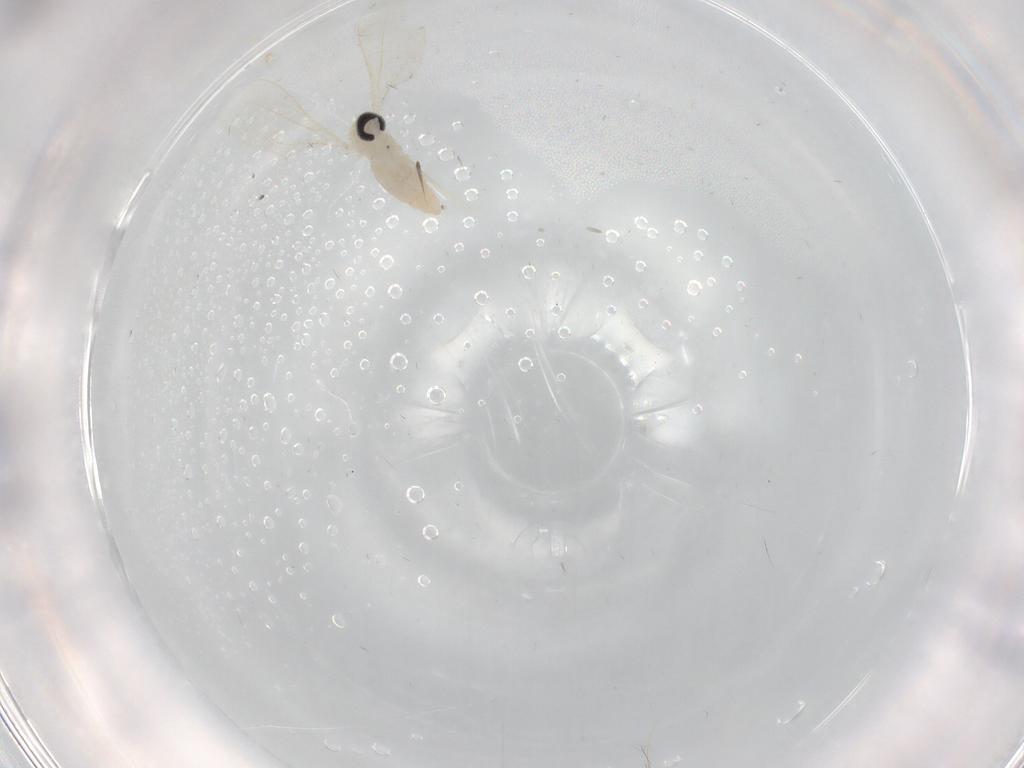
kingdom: Animalia
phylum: Arthropoda
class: Insecta
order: Diptera
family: Cecidomyiidae
